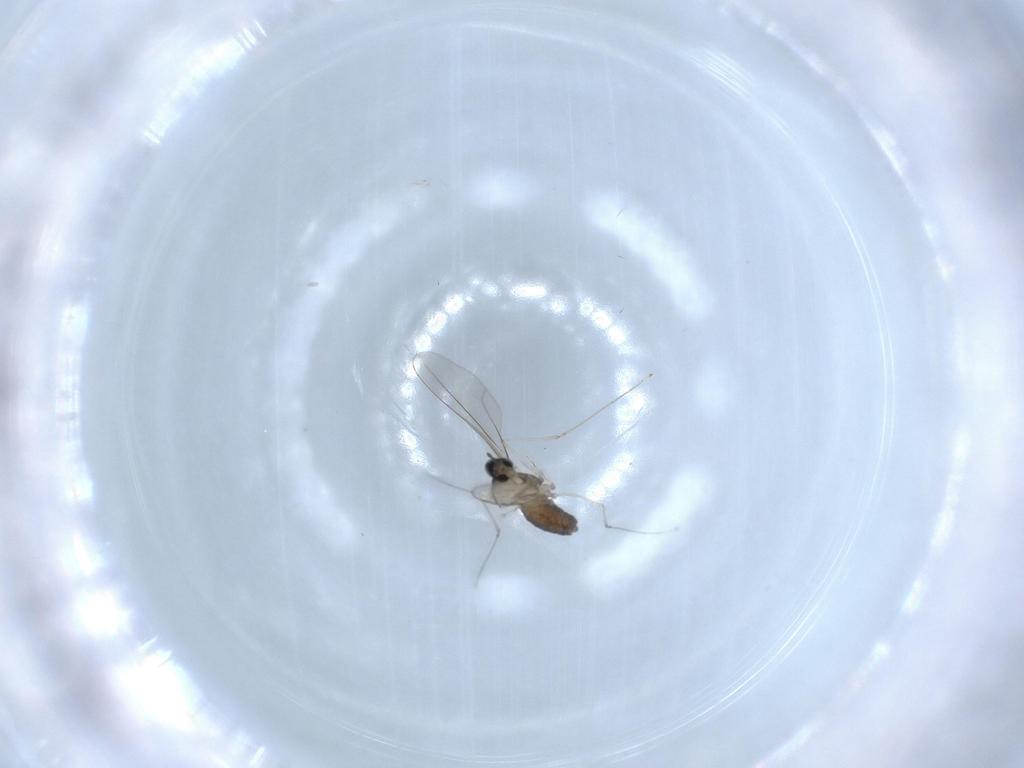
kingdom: Animalia
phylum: Arthropoda
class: Insecta
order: Diptera
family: Cecidomyiidae
